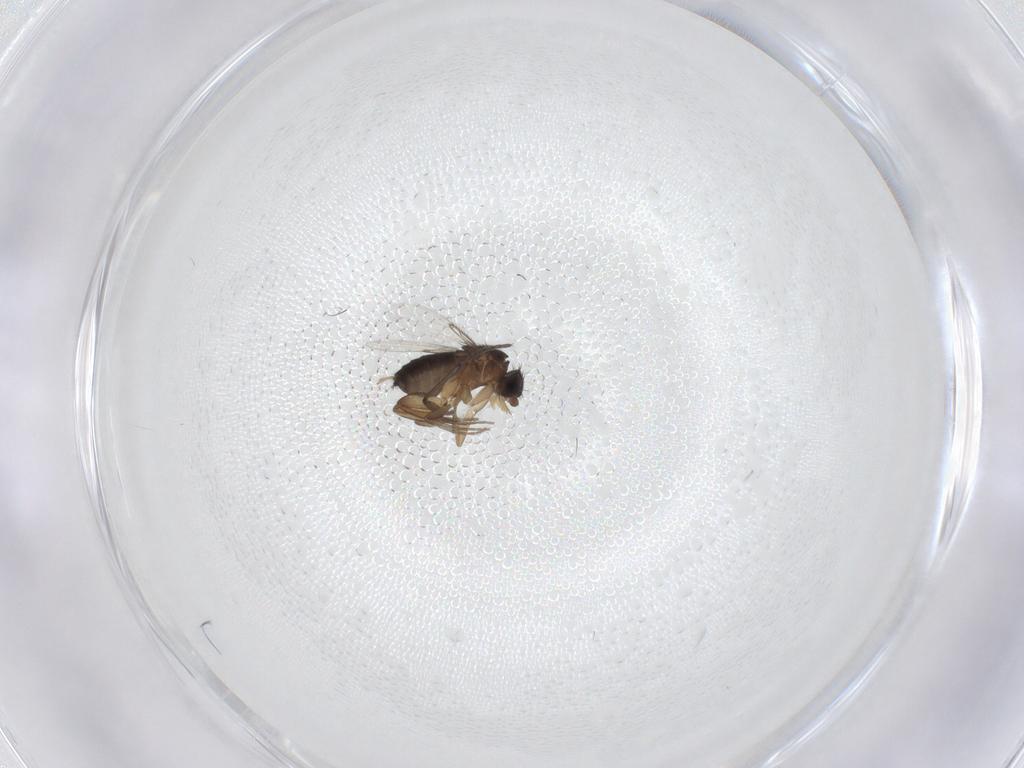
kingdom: Animalia
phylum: Arthropoda
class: Insecta
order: Diptera
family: Sciaridae
